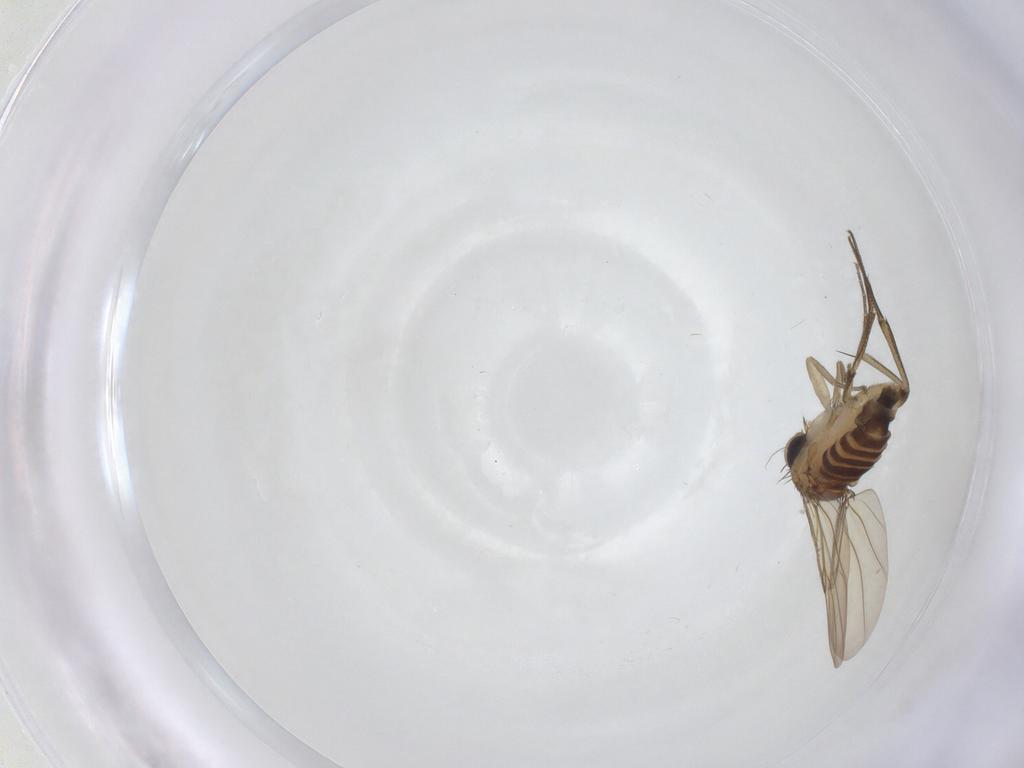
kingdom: Animalia
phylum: Arthropoda
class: Insecta
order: Diptera
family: Phoridae
